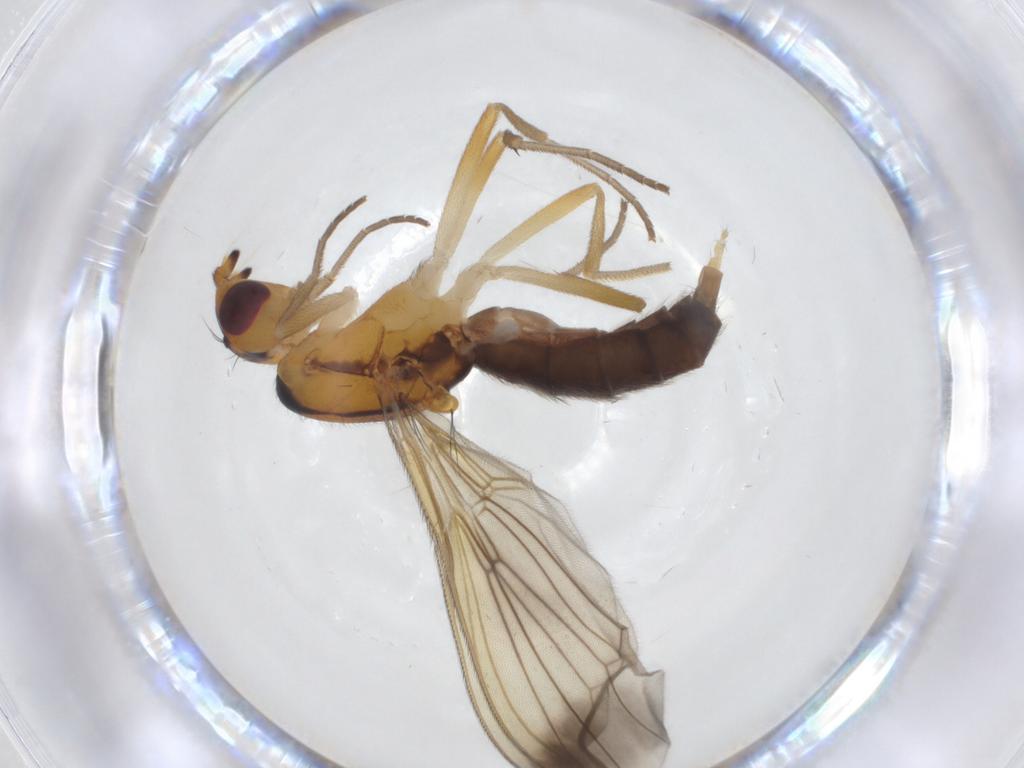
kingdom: Animalia
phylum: Arthropoda
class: Insecta
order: Diptera
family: Psilidae
